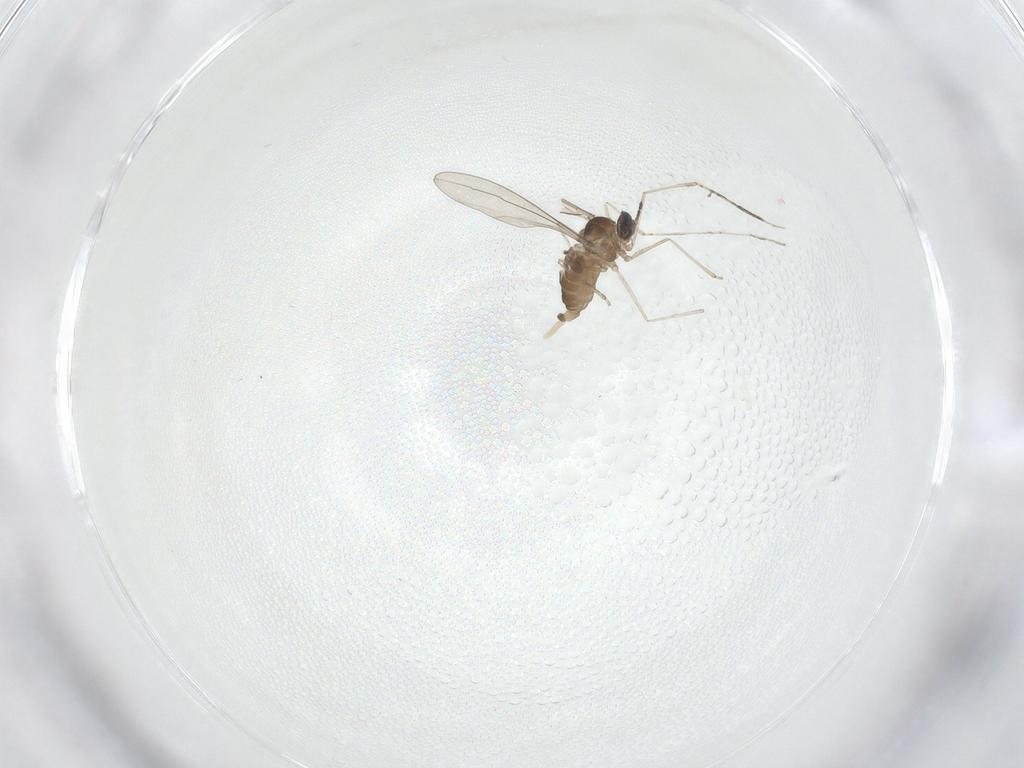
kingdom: Animalia
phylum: Arthropoda
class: Insecta
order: Diptera
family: Cecidomyiidae
